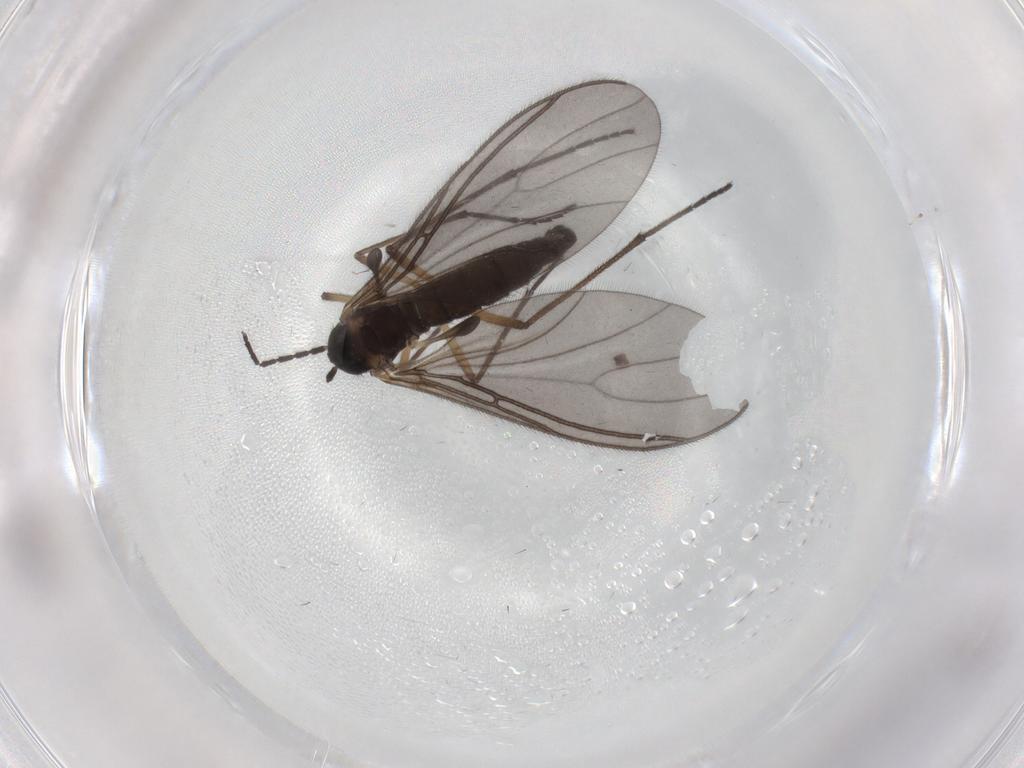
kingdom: Animalia
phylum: Arthropoda
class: Insecta
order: Diptera
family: Sciaridae
